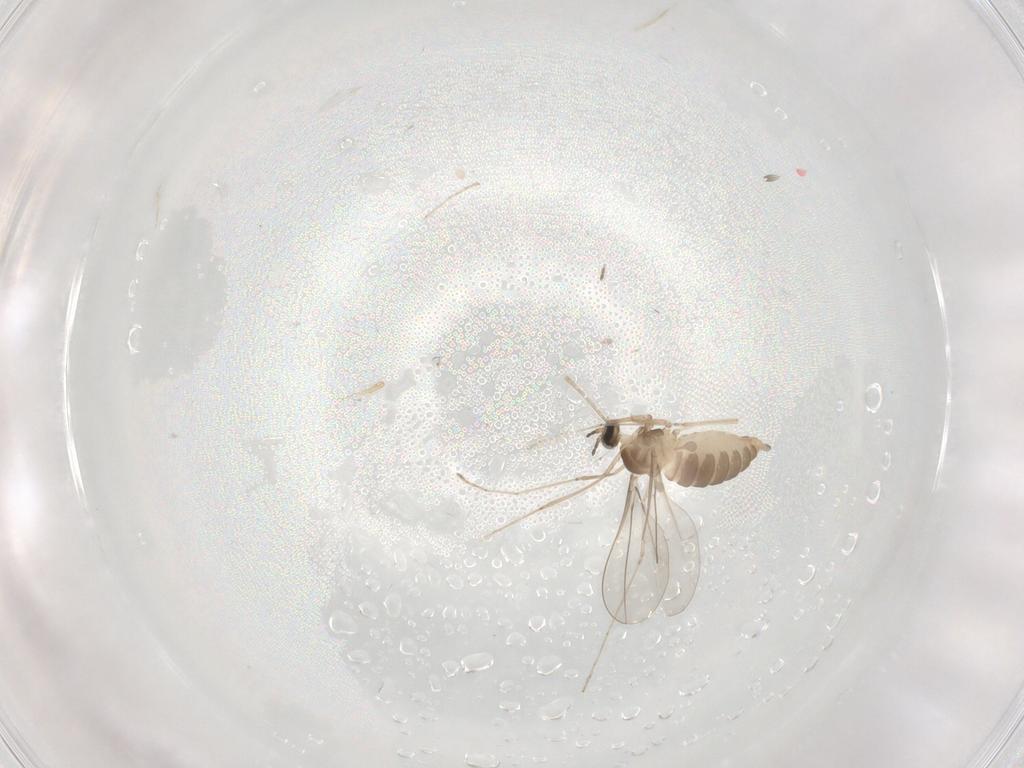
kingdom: Animalia
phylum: Arthropoda
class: Insecta
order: Diptera
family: Cecidomyiidae
